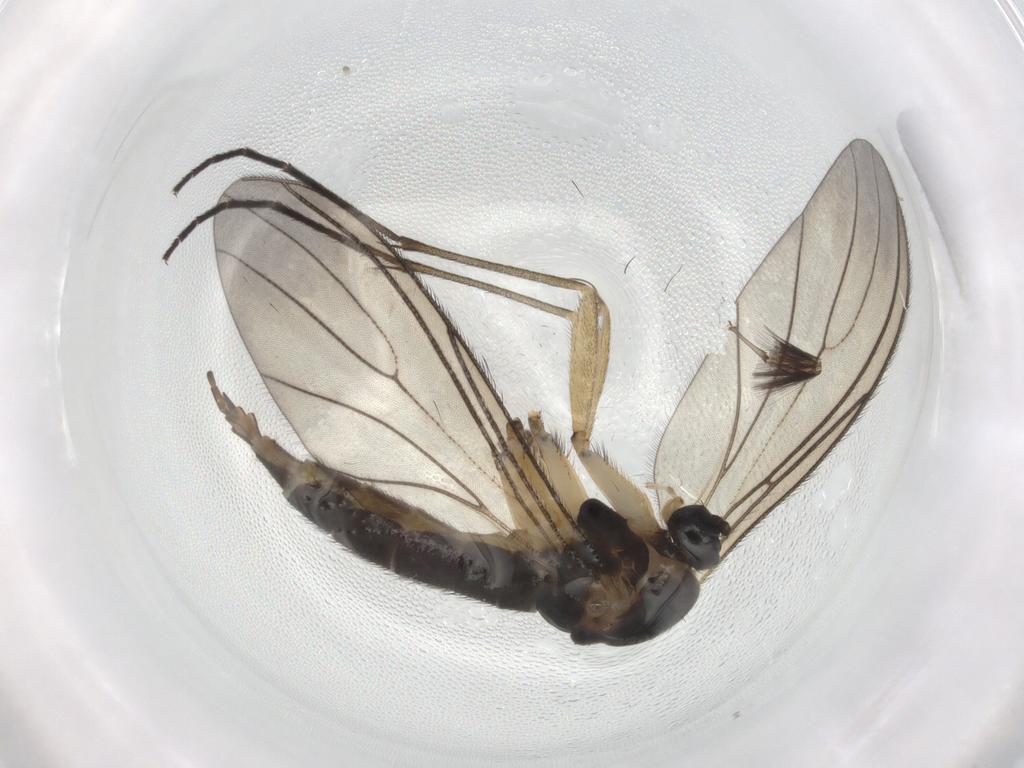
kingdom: Animalia
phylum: Arthropoda
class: Insecta
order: Diptera
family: Sciaridae
